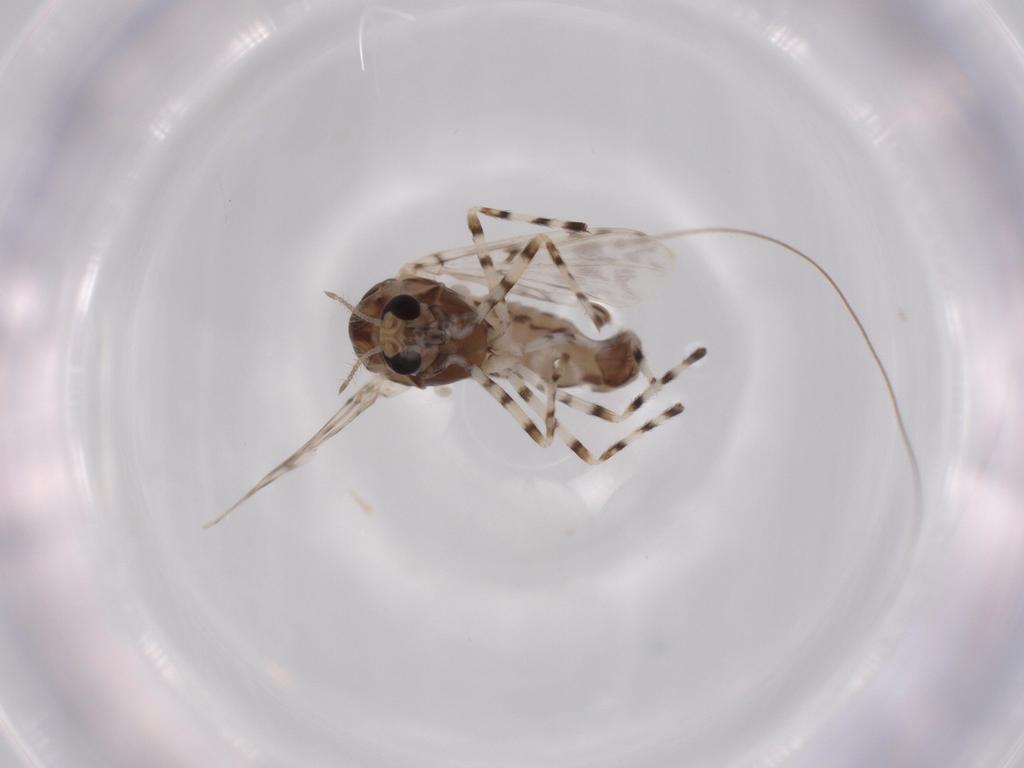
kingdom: Animalia
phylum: Arthropoda
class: Insecta
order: Diptera
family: Chironomidae
